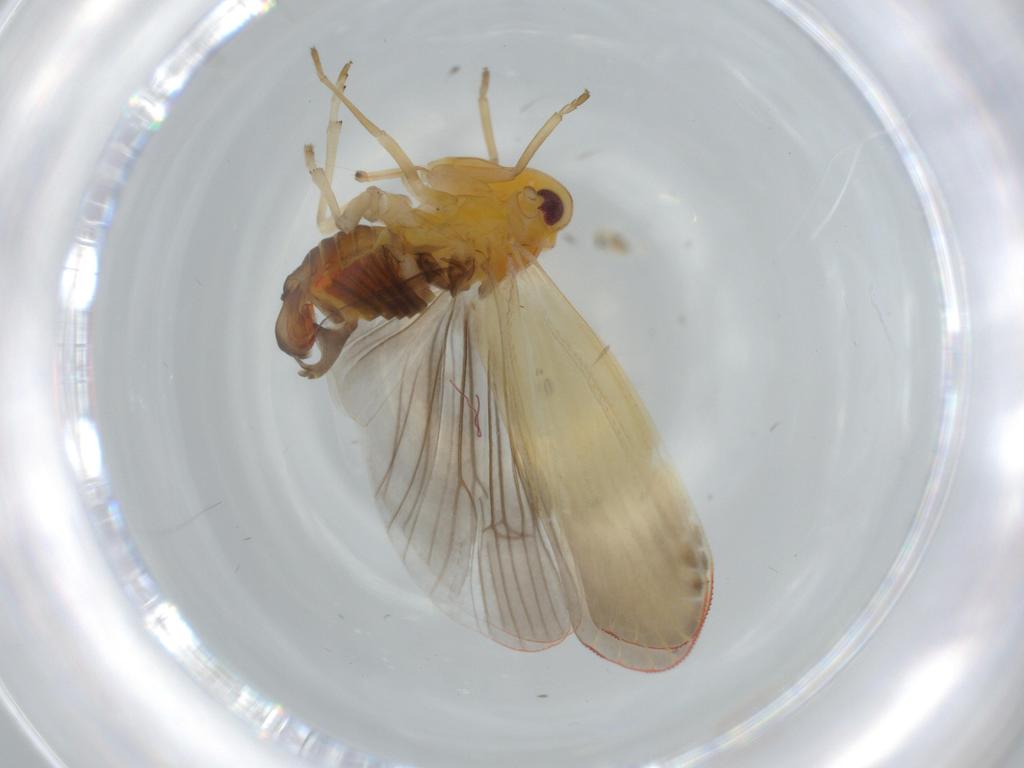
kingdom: Animalia
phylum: Arthropoda
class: Insecta
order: Hemiptera
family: Derbidae
